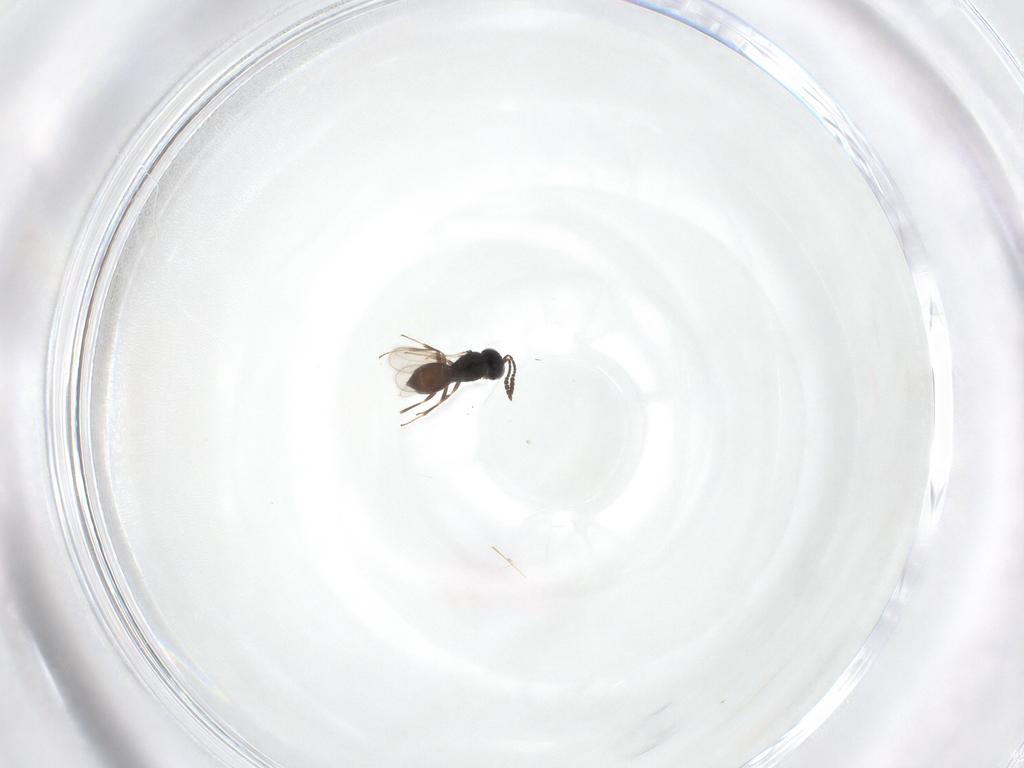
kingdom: Animalia
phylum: Arthropoda
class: Insecta
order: Hymenoptera
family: Scelionidae
